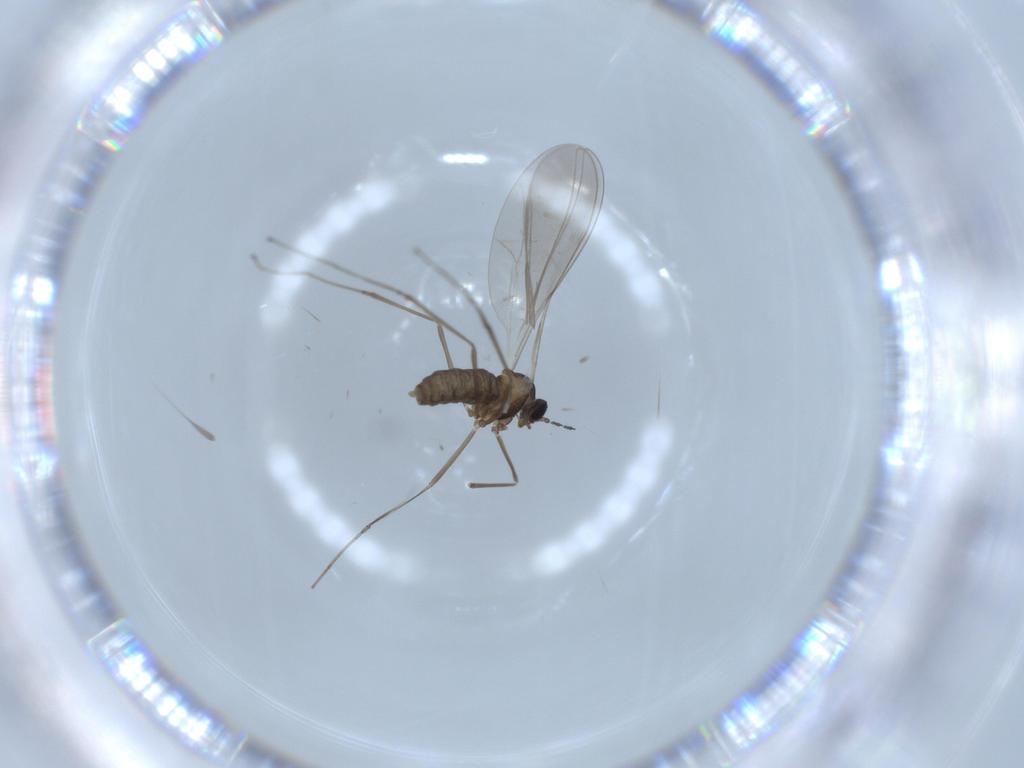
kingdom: Animalia
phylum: Arthropoda
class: Insecta
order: Diptera
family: Cecidomyiidae
